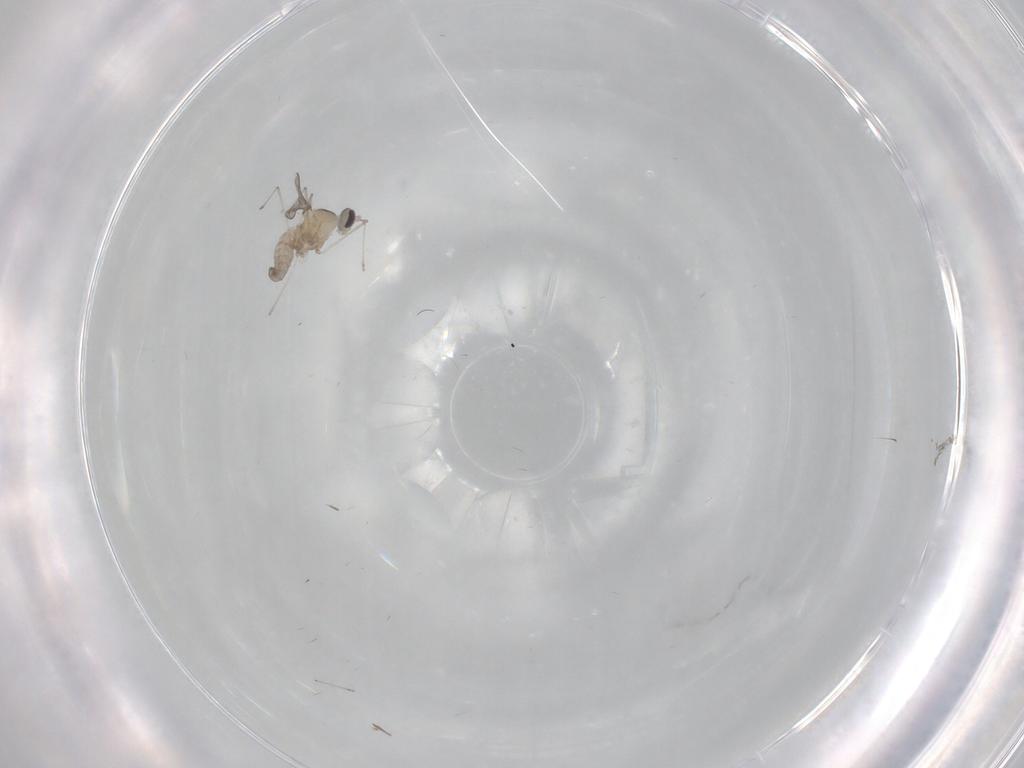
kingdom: Animalia
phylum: Arthropoda
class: Insecta
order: Diptera
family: Cecidomyiidae
